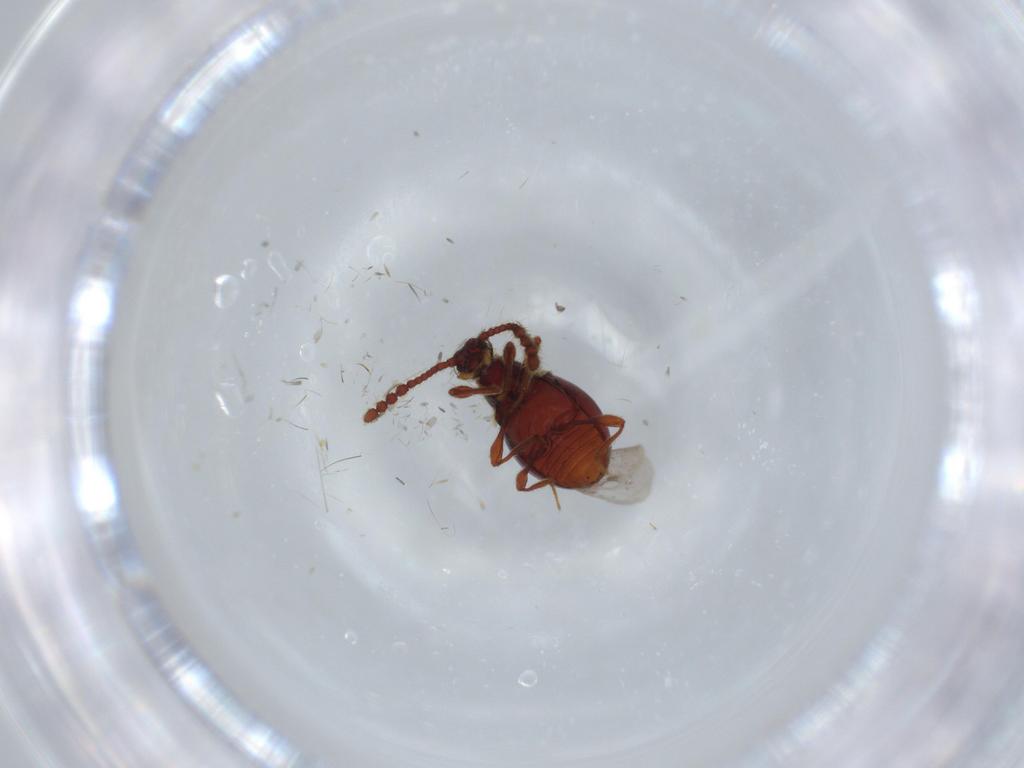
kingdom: Animalia
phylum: Arthropoda
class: Insecta
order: Coleoptera
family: Staphylinidae
